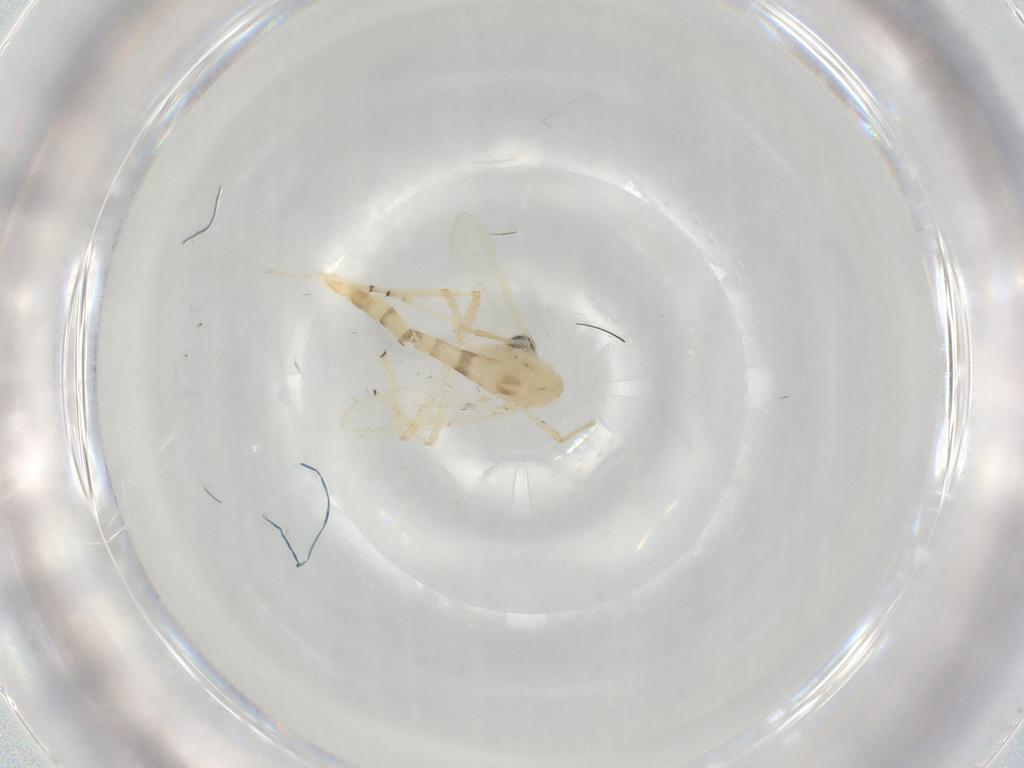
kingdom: Animalia
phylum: Arthropoda
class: Insecta
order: Diptera
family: Chironomidae
